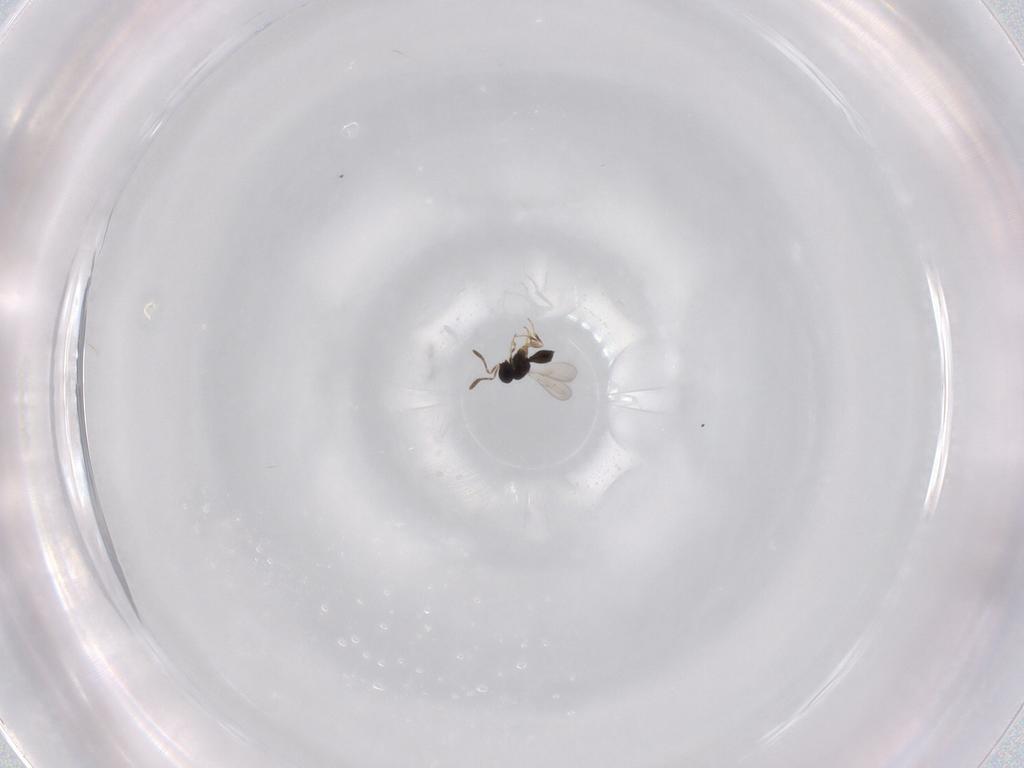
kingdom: Animalia
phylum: Arthropoda
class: Insecta
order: Hymenoptera
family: Scelionidae
